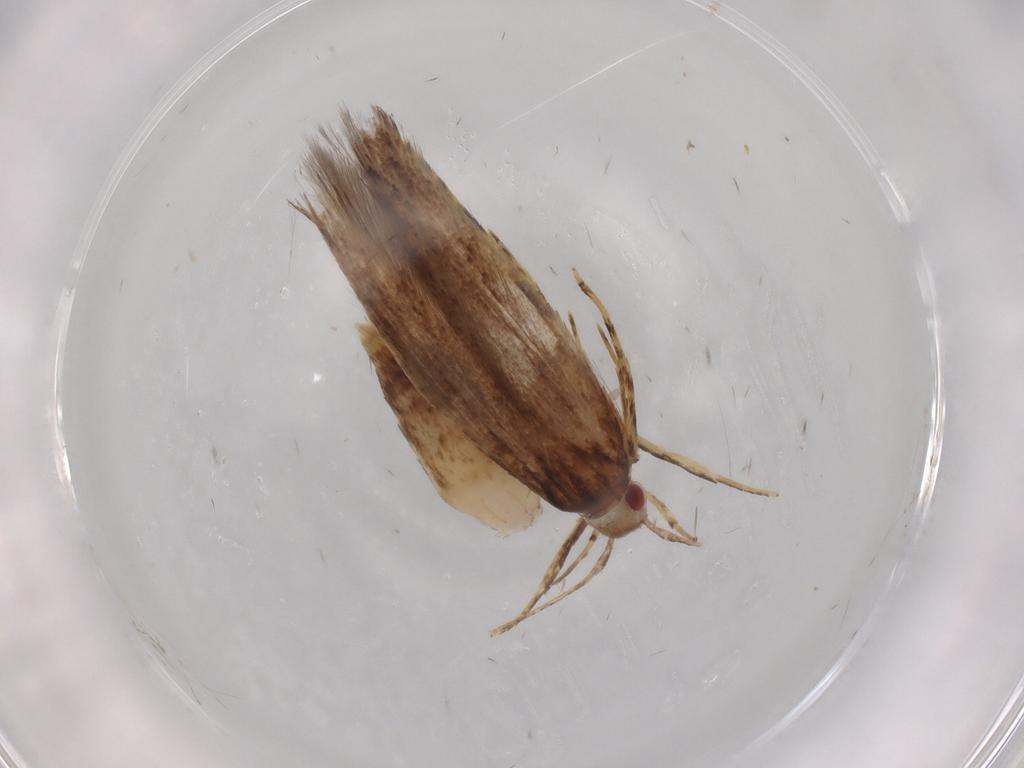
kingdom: Animalia
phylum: Arthropoda
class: Insecta
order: Lepidoptera
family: Cosmopterigidae
